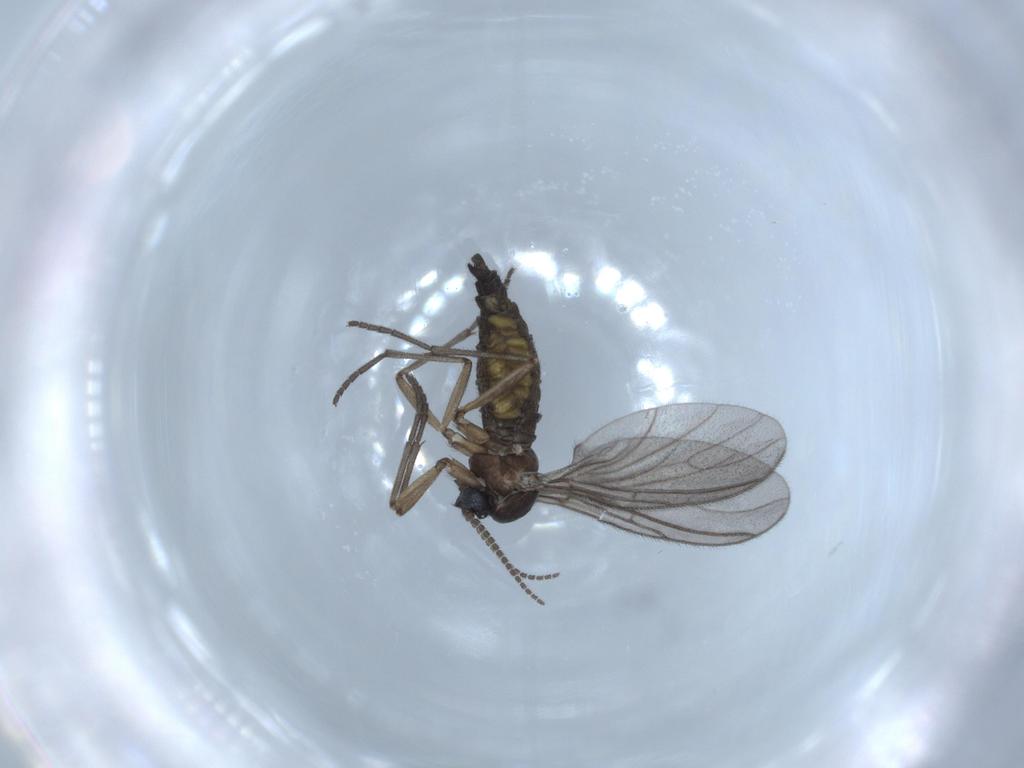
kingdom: Animalia
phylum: Arthropoda
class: Insecta
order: Diptera
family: Sciaridae
